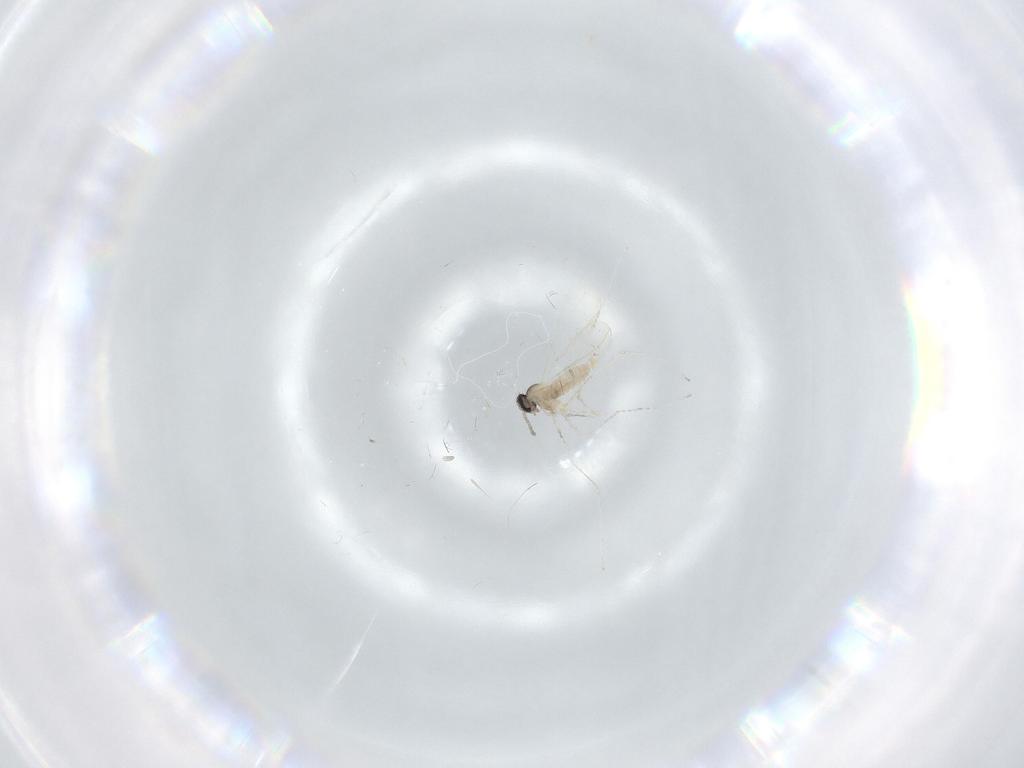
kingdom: Animalia
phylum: Arthropoda
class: Insecta
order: Diptera
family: Cecidomyiidae
